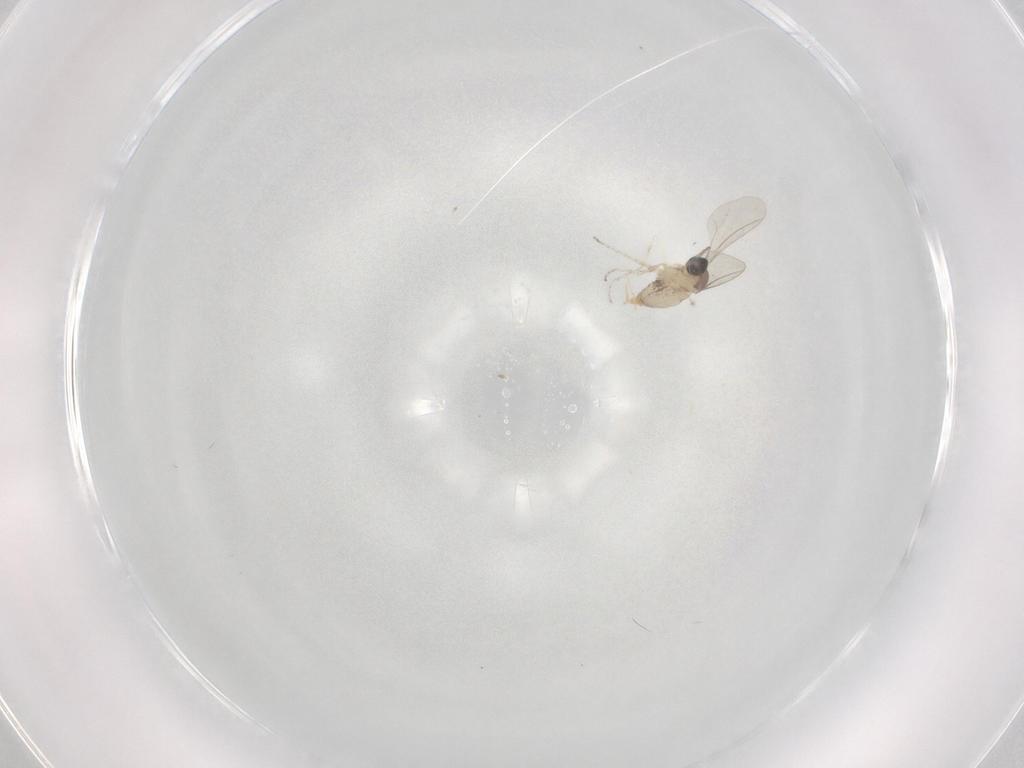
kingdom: Animalia
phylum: Arthropoda
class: Insecta
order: Diptera
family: Cecidomyiidae
